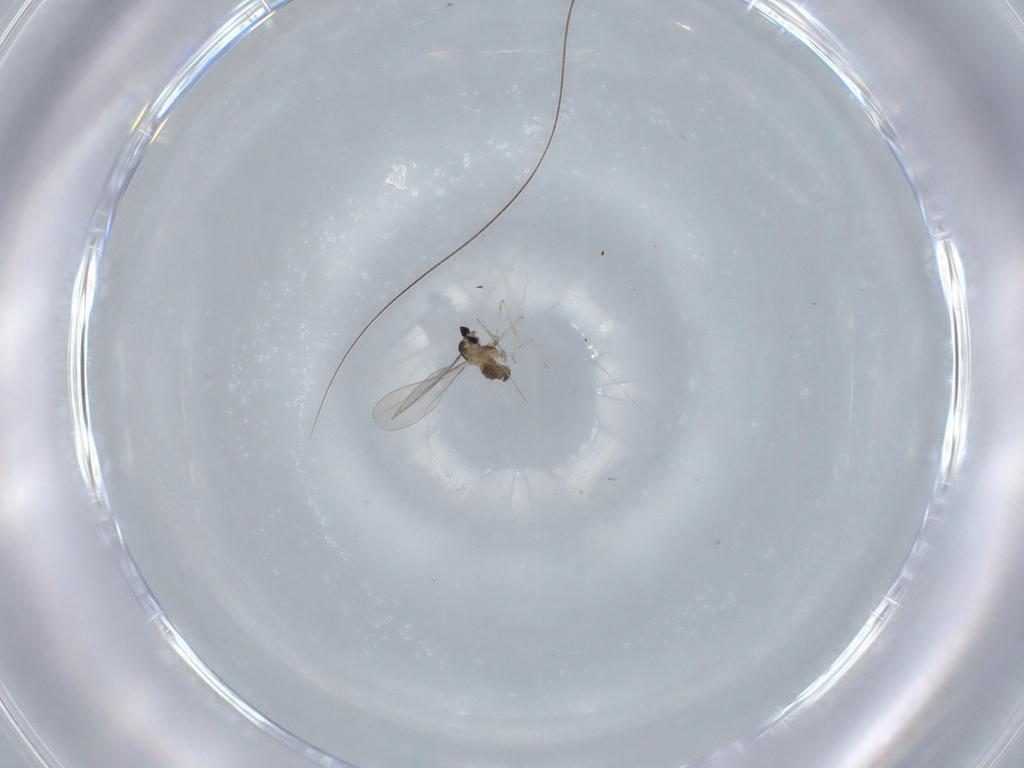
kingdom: Animalia
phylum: Arthropoda
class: Insecta
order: Diptera
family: Cecidomyiidae
